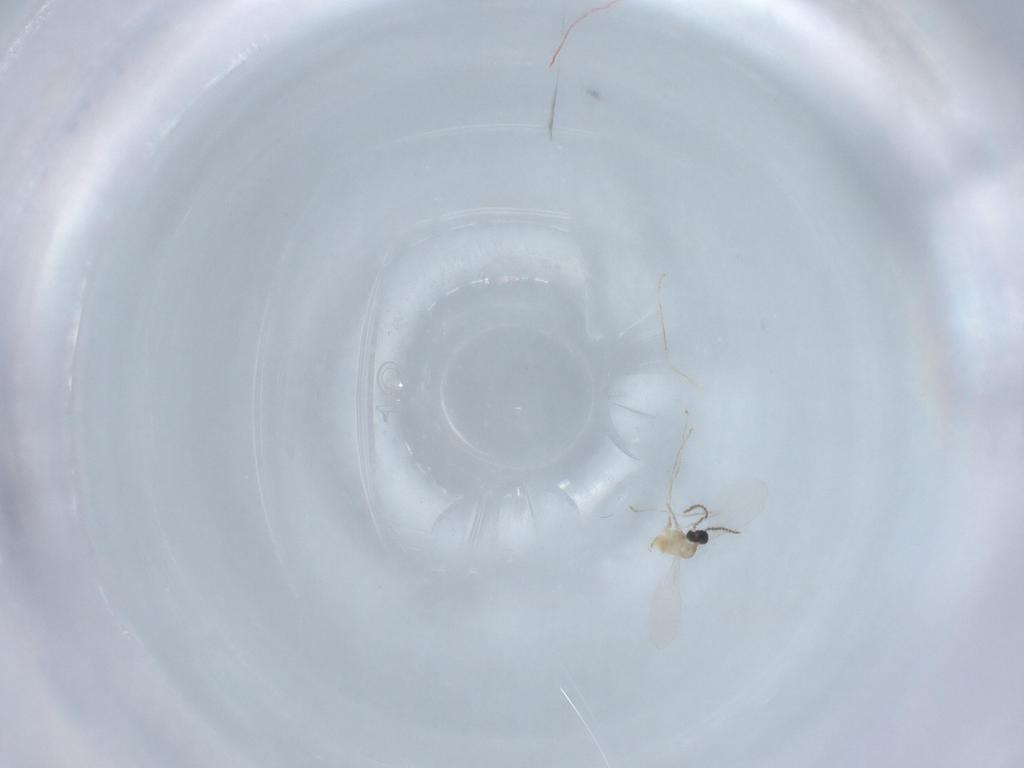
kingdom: Animalia
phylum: Arthropoda
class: Insecta
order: Diptera
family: Cecidomyiidae
